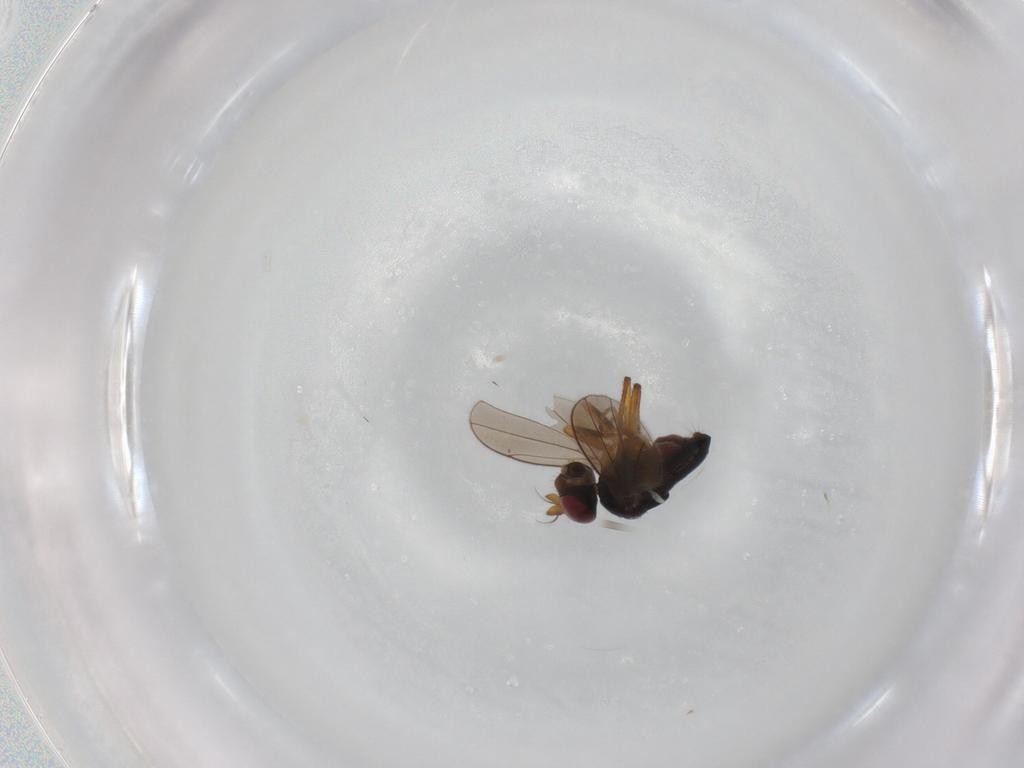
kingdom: Animalia
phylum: Arthropoda
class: Insecta
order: Diptera
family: Ephydridae
